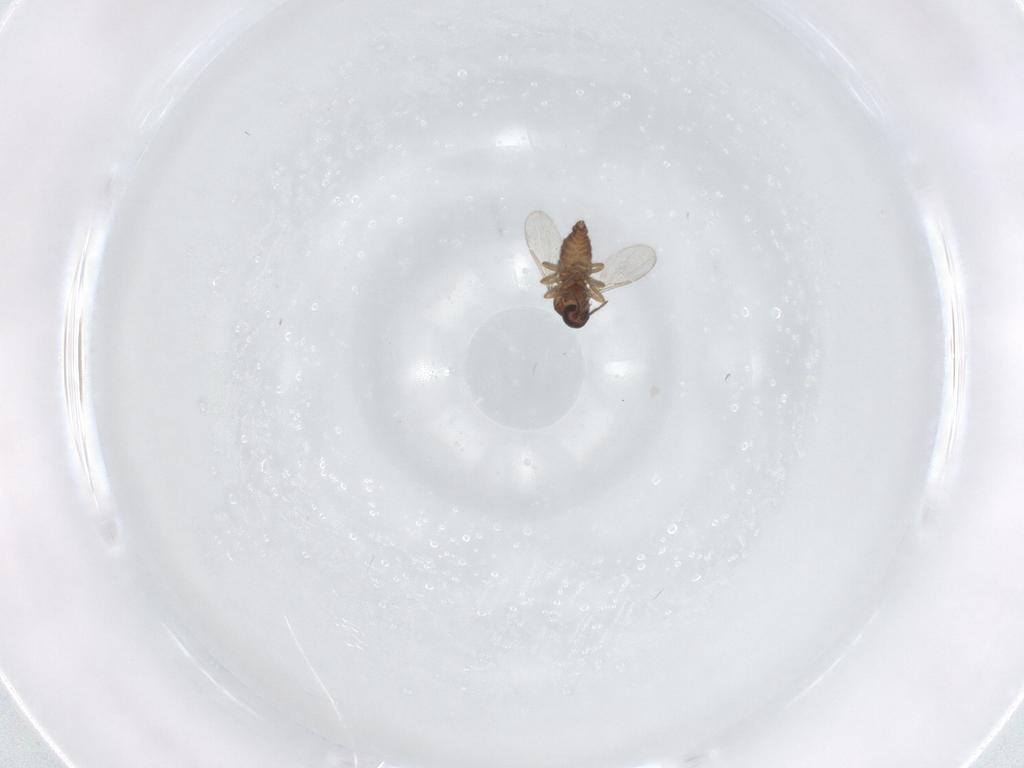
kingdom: Animalia
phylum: Arthropoda
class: Insecta
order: Diptera
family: Ceratopogonidae
